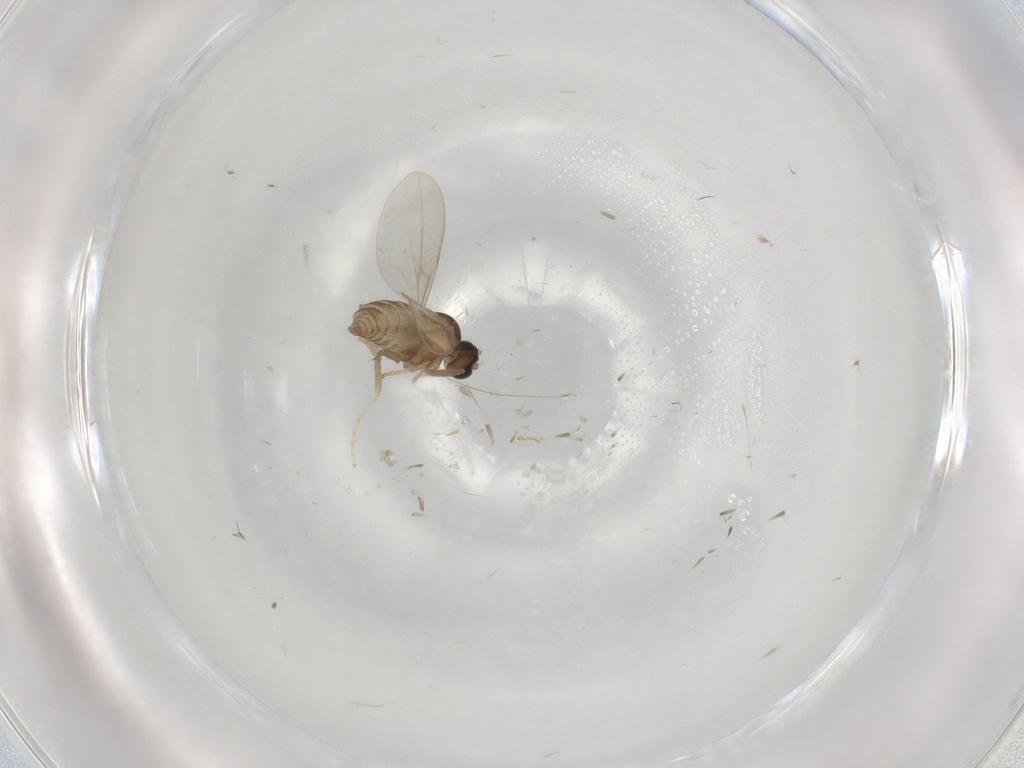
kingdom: Animalia
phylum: Arthropoda
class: Insecta
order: Diptera
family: Cecidomyiidae
